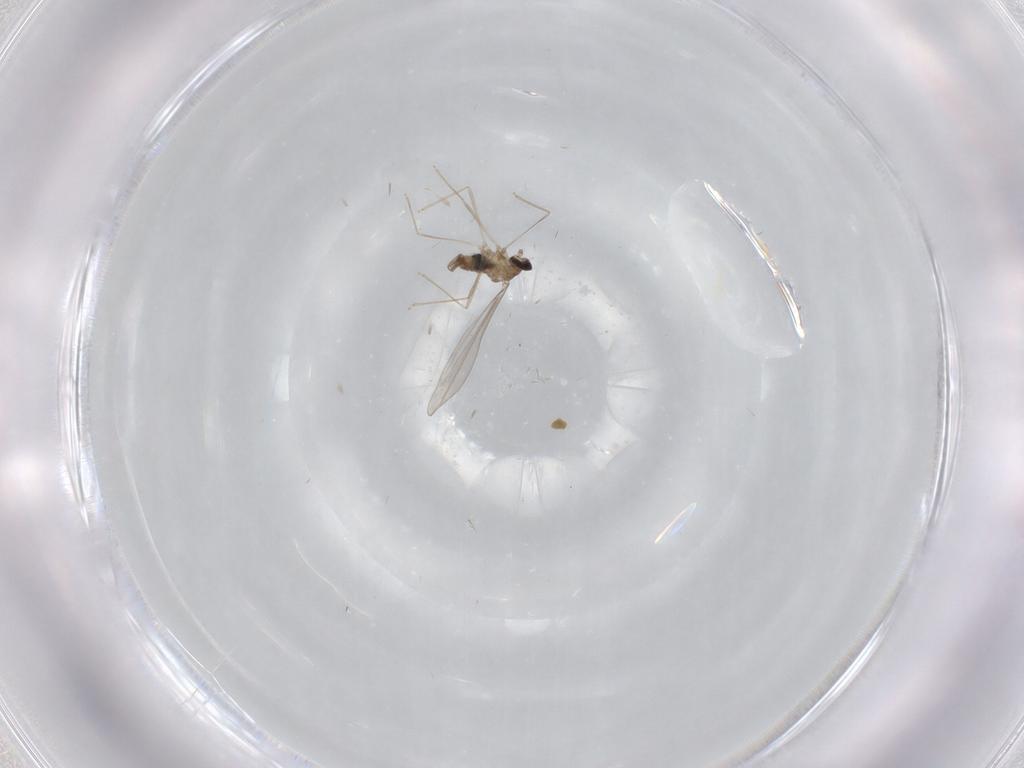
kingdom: Animalia
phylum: Arthropoda
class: Insecta
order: Diptera
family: Cecidomyiidae
